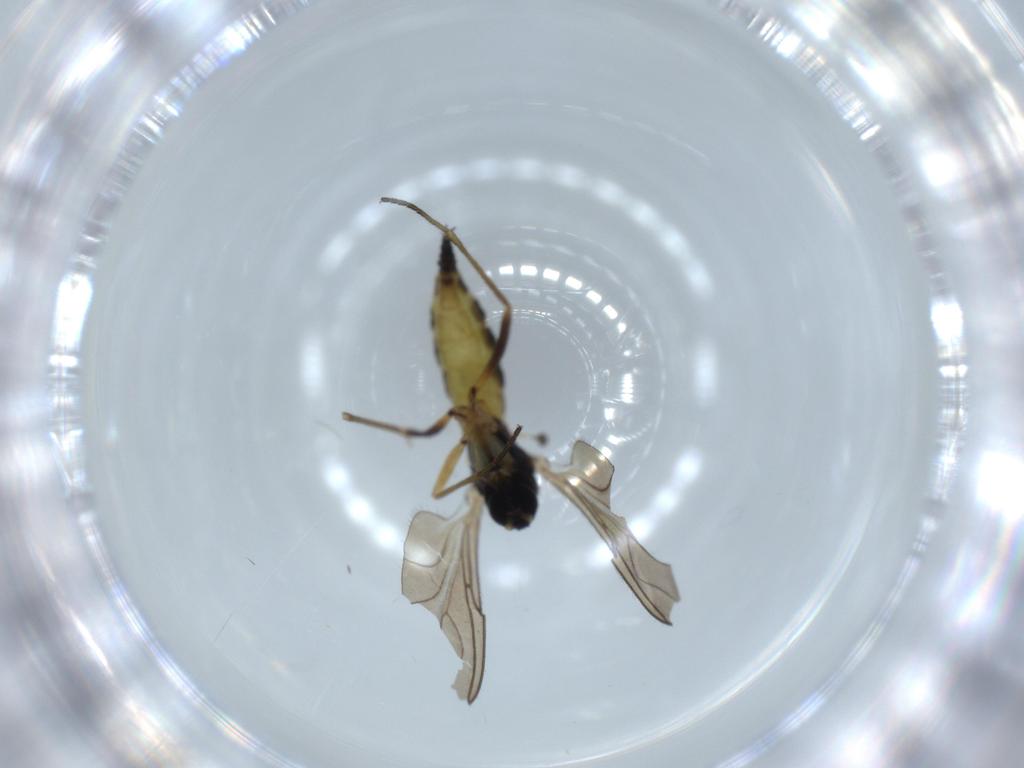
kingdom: Animalia
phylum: Arthropoda
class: Insecta
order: Diptera
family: Sciaridae
